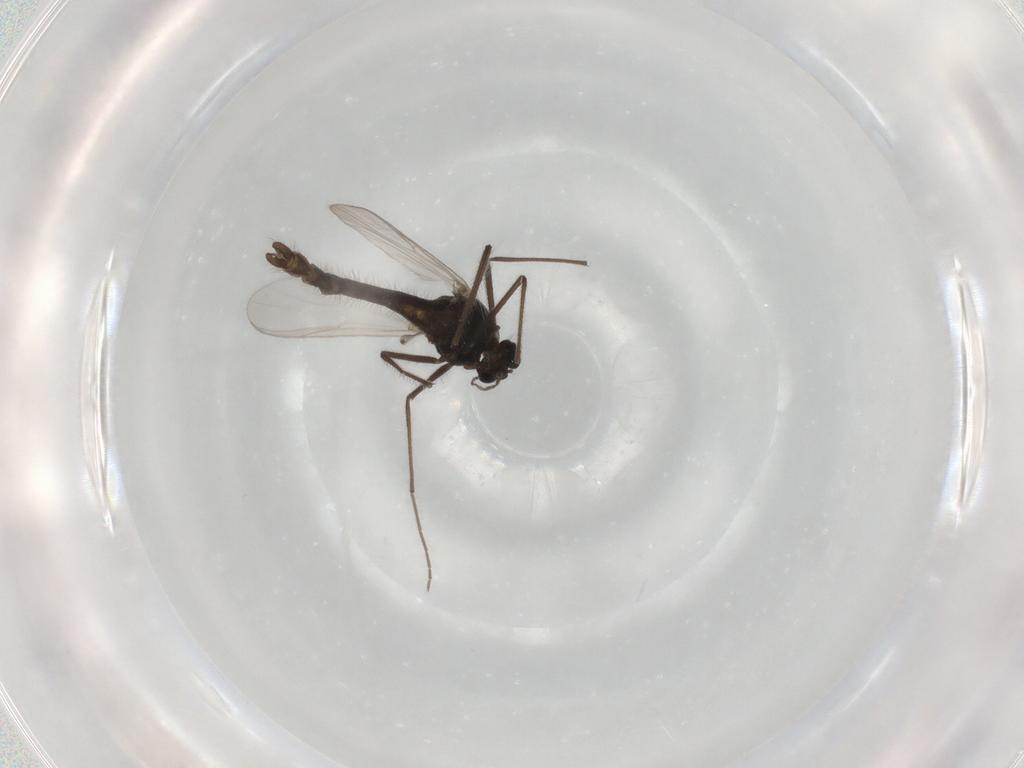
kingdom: Animalia
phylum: Arthropoda
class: Insecta
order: Diptera
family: Chironomidae
